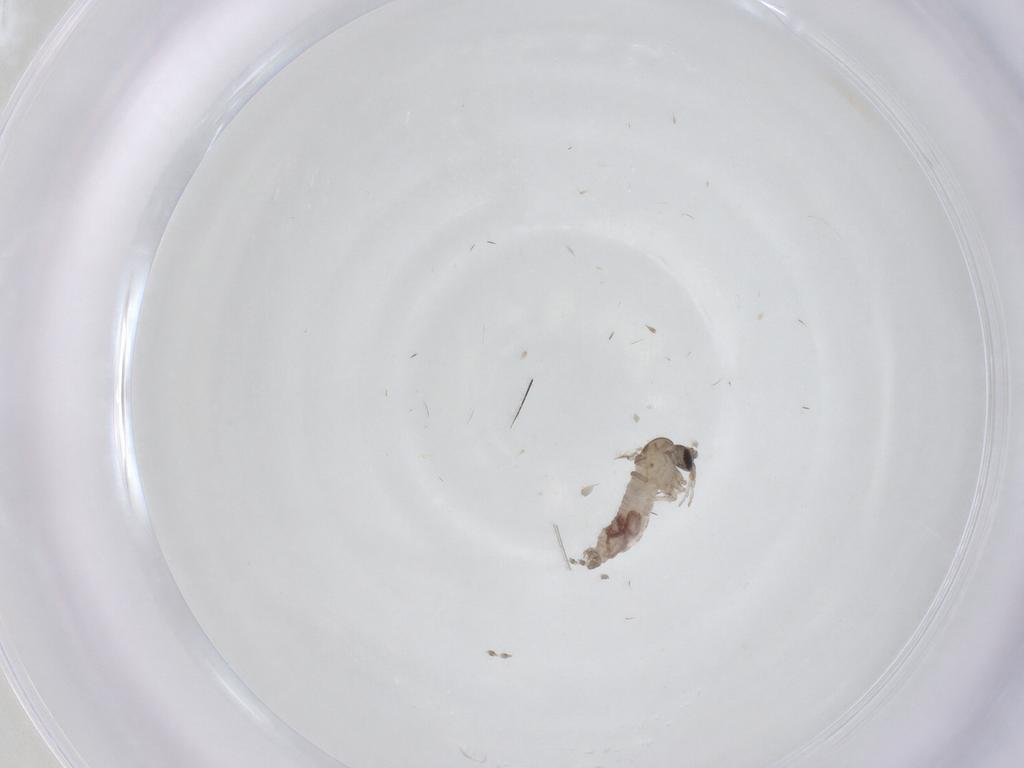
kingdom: Animalia
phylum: Arthropoda
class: Insecta
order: Diptera
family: Psychodidae
